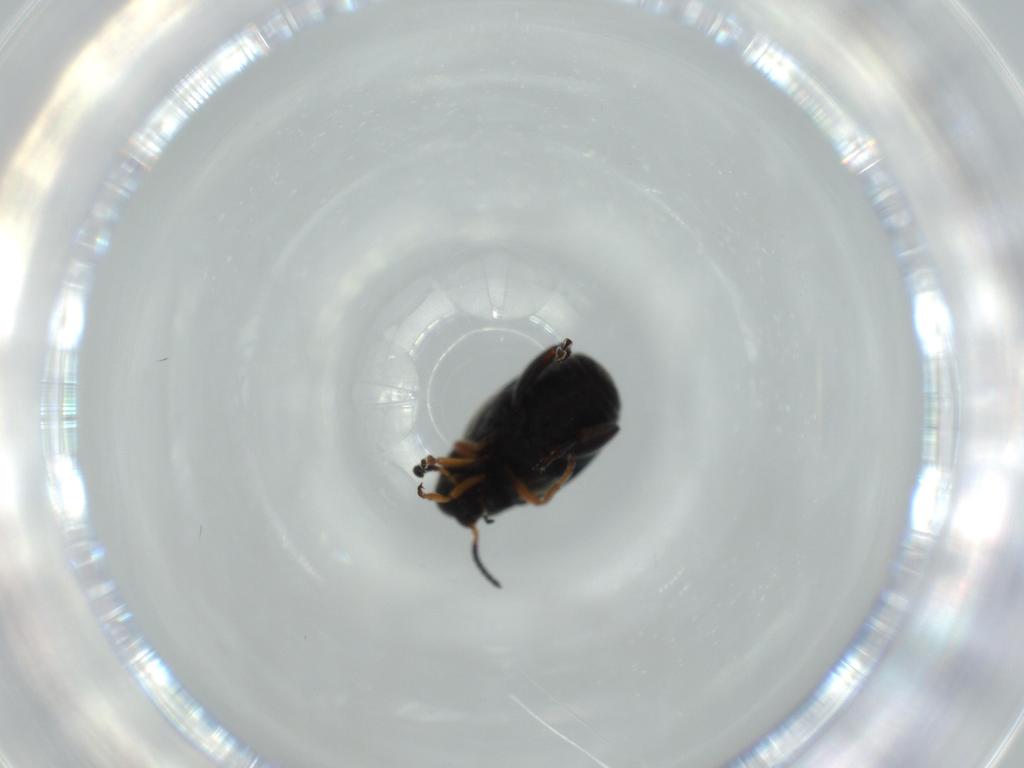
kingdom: Animalia
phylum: Arthropoda
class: Insecta
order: Coleoptera
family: Chrysomelidae
